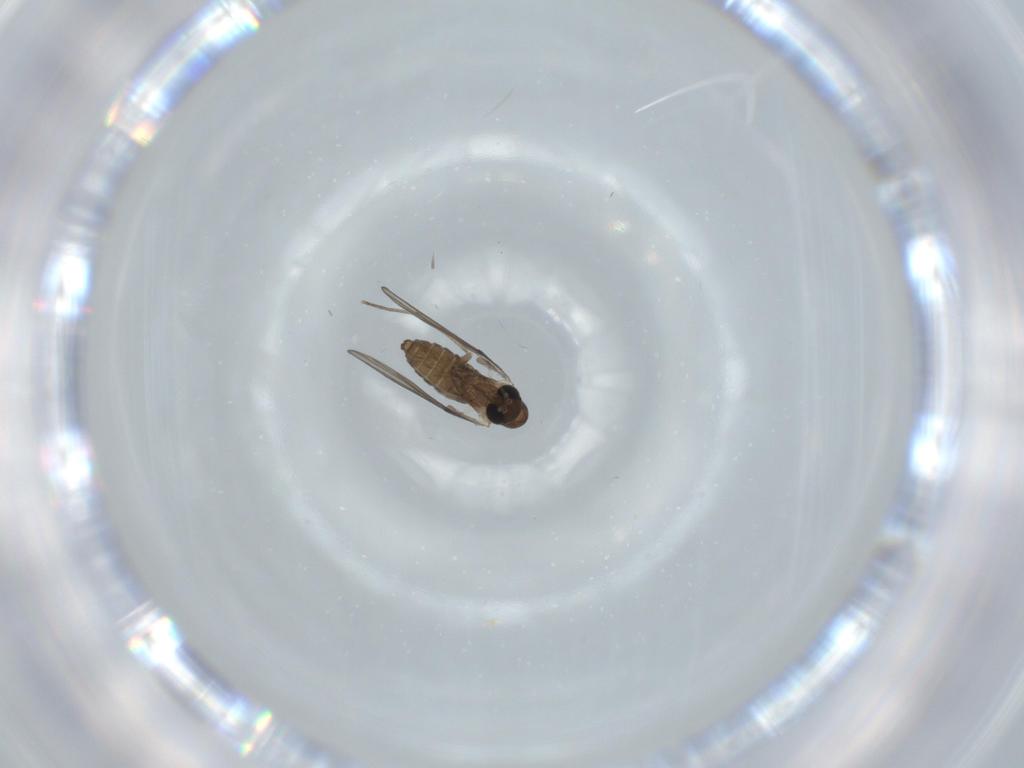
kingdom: Animalia
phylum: Arthropoda
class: Insecta
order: Diptera
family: Psychodidae
